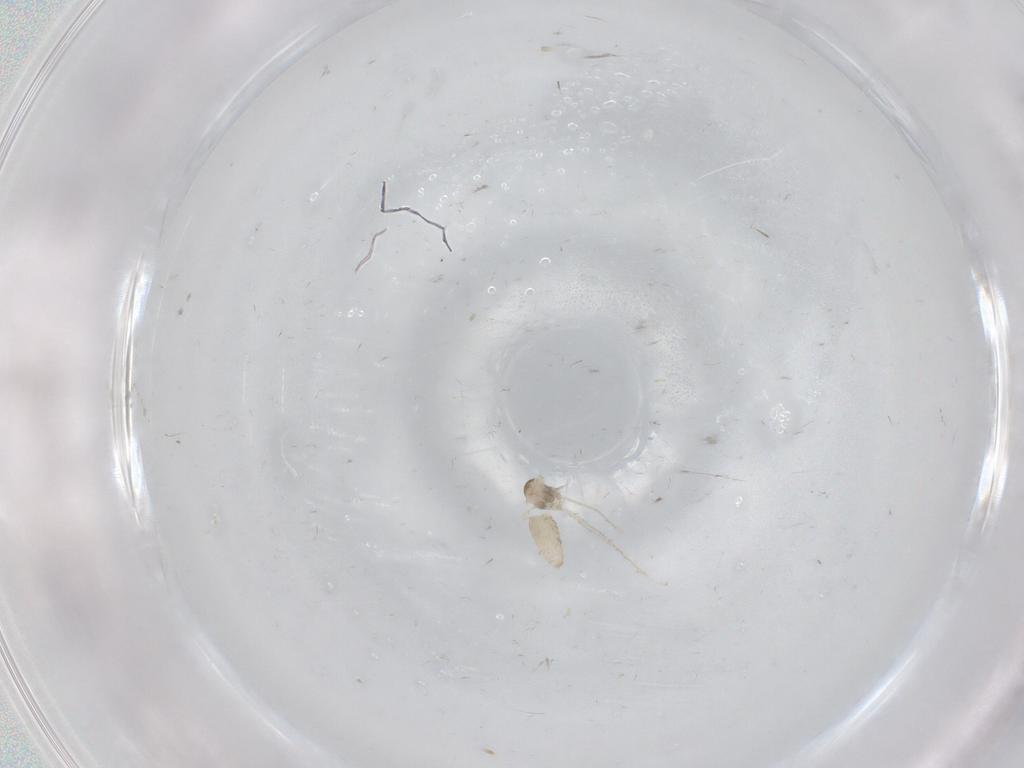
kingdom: Animalia
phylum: Arthropoda
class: Insecta
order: Diptera
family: Cecidomyiidae
